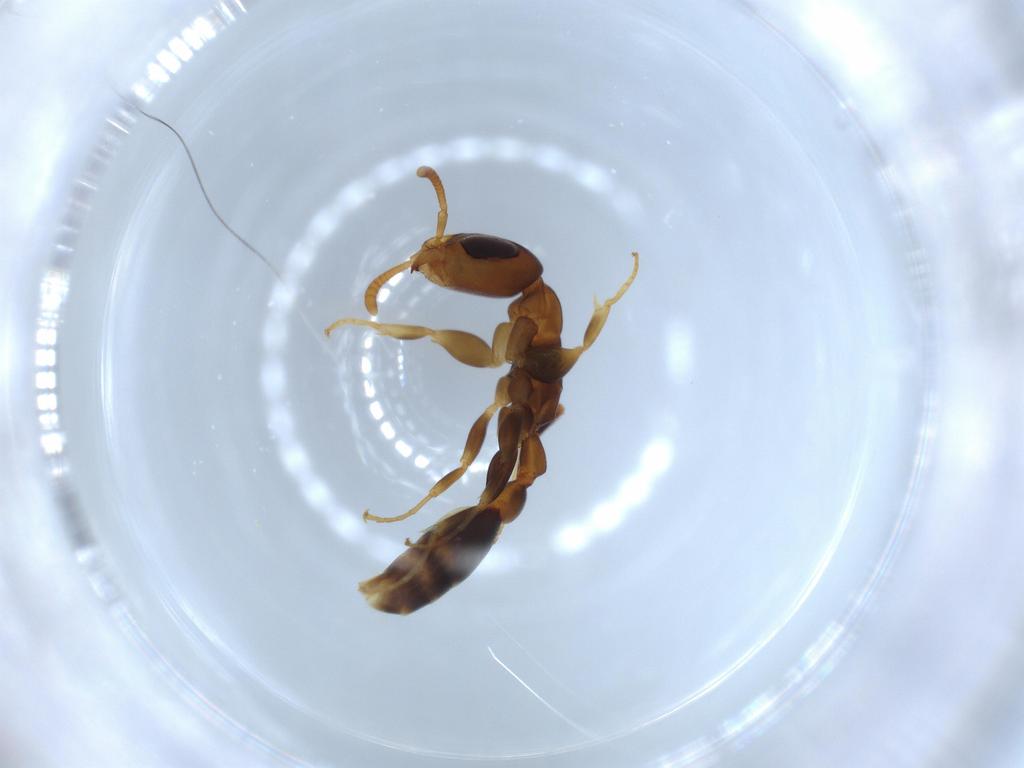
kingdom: Animalia
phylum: Arthropoda
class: Insecta
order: Hymenoptera
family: Formicidae
